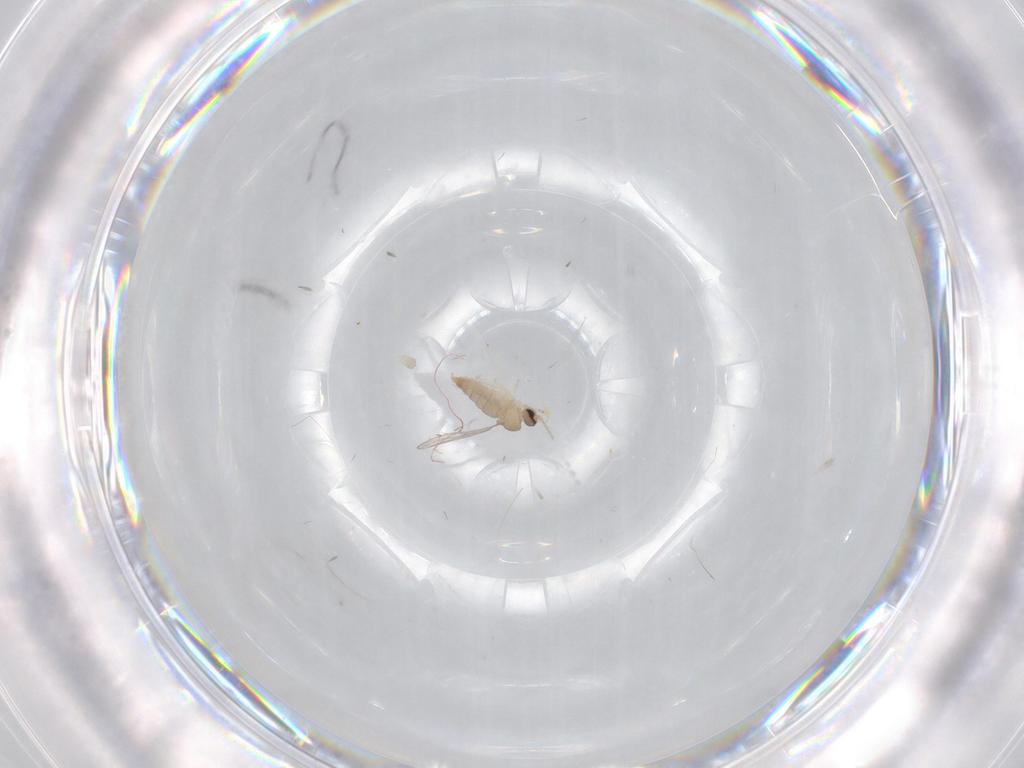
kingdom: Animalia
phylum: Arthropoda
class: Insecta
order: Diptera
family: Cecidomyiidae
